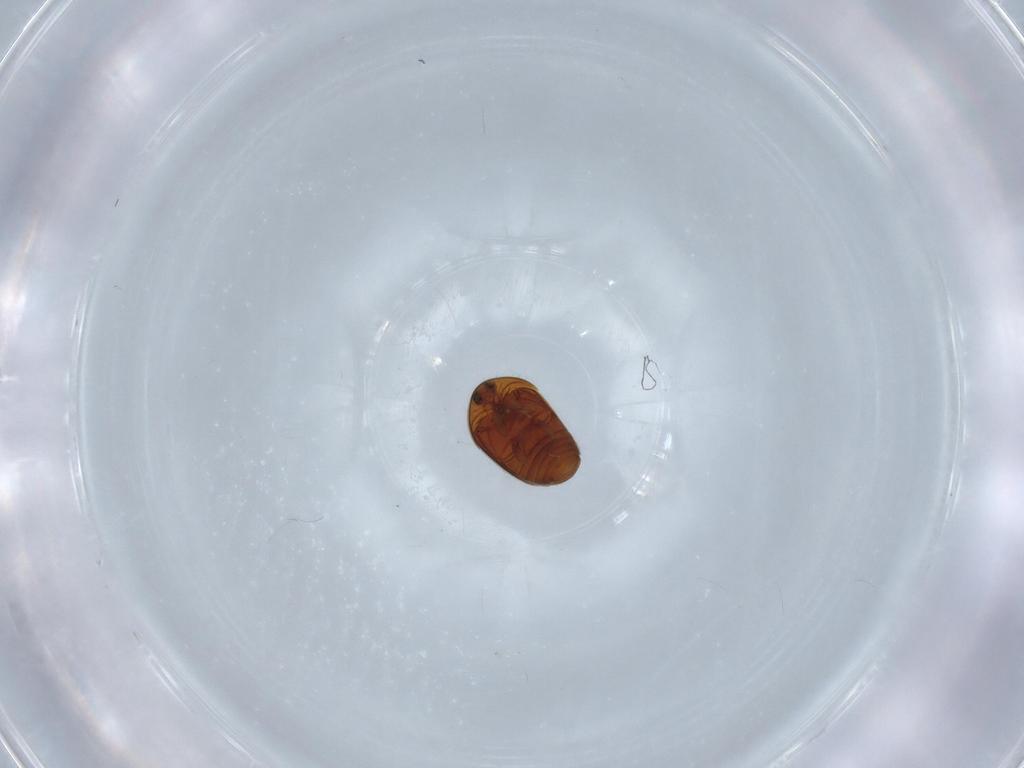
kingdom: Animalia
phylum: Arthropoda
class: Insecta
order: Coleoptera
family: Corylophidae
